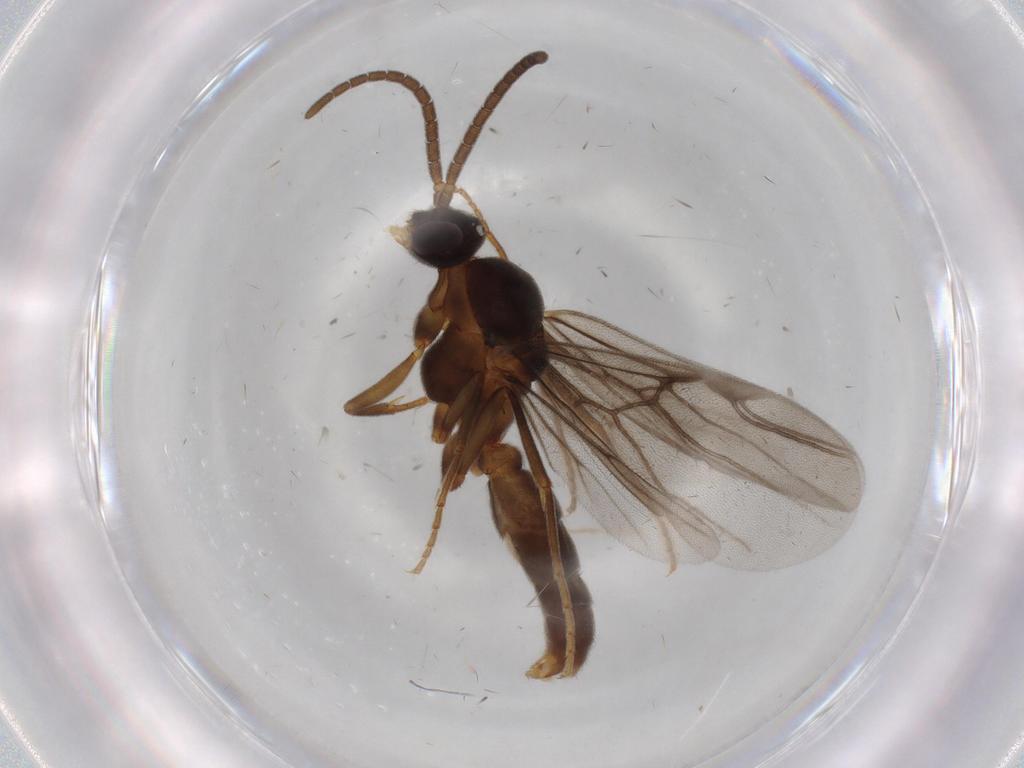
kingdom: Animalia
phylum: Arthropoda
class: Insecta
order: Hymenoptera
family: Formicidae
